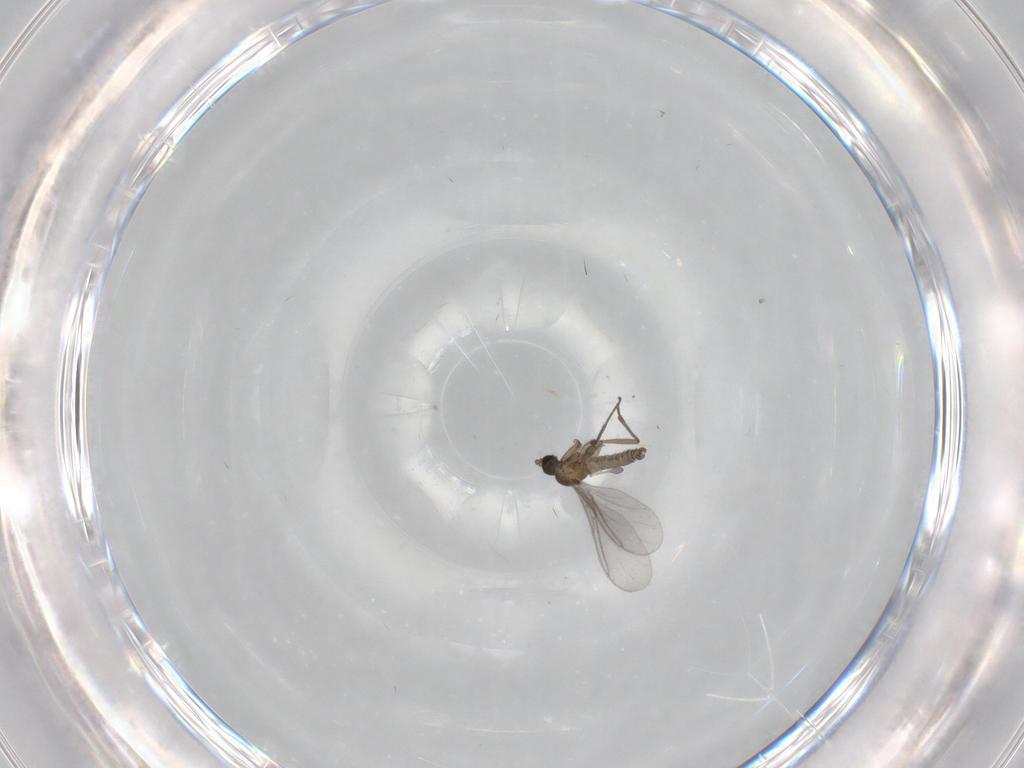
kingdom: Animalia
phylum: Arthropoda
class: Insecta
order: Diptera
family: Sciaridae
